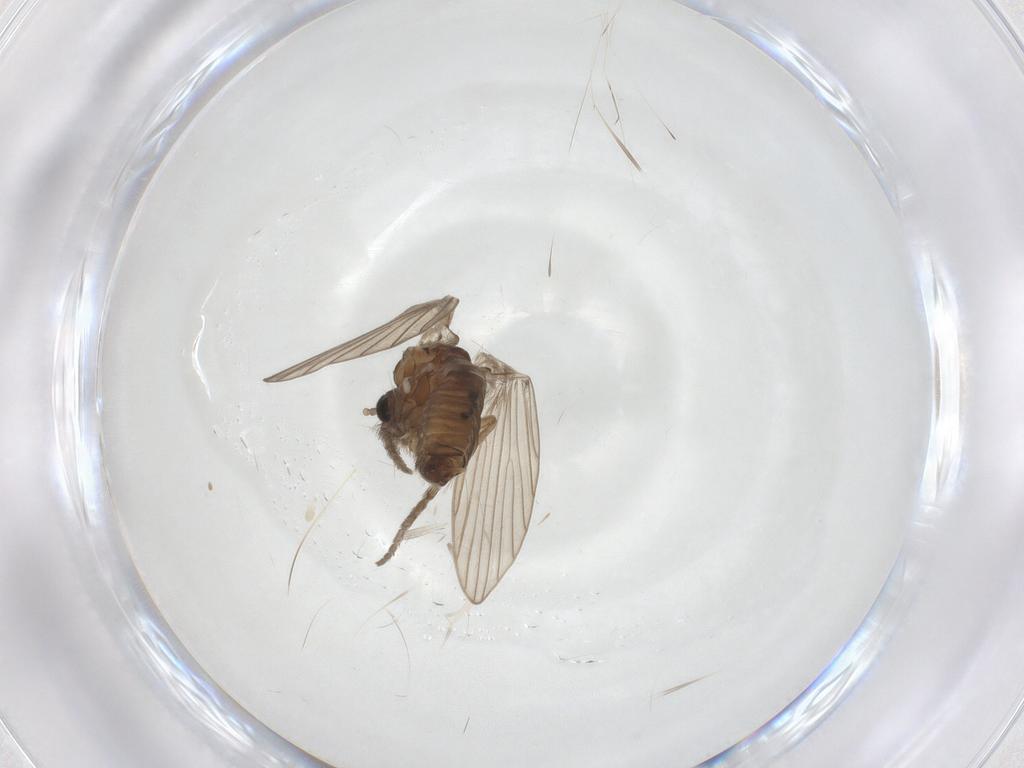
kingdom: Animalia
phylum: Arthropoda
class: Insecta
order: Diptera
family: Psychodidae
